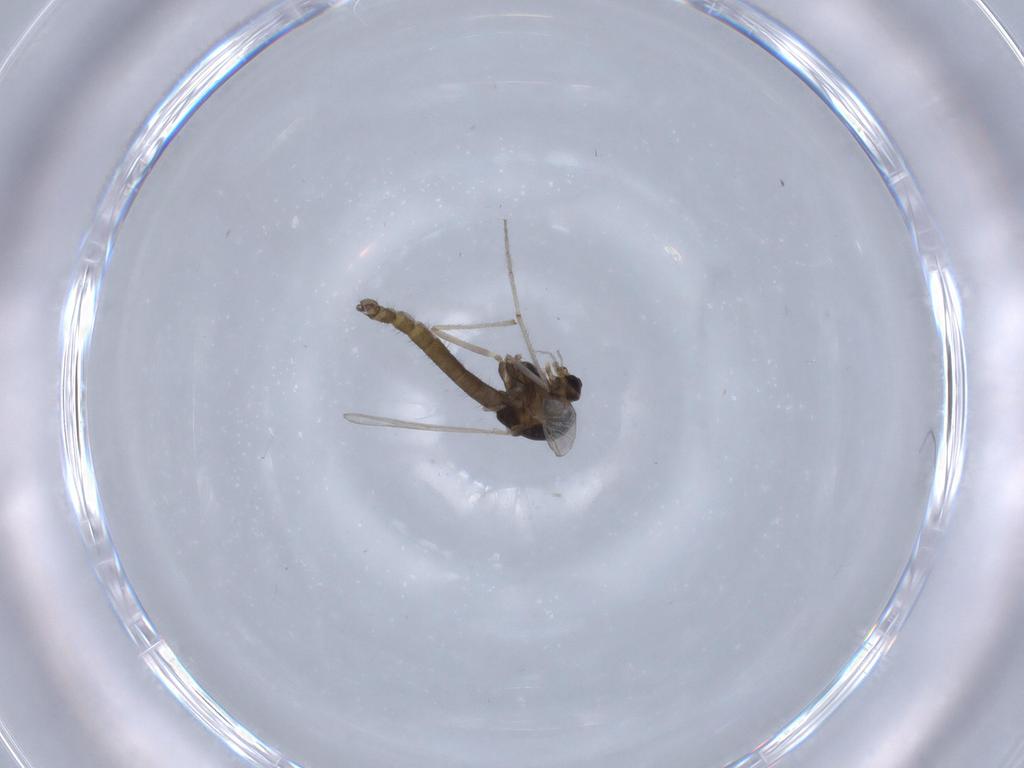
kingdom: Animalia
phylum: Arthropoda
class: Insecta
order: Diptera
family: Chironomidae
